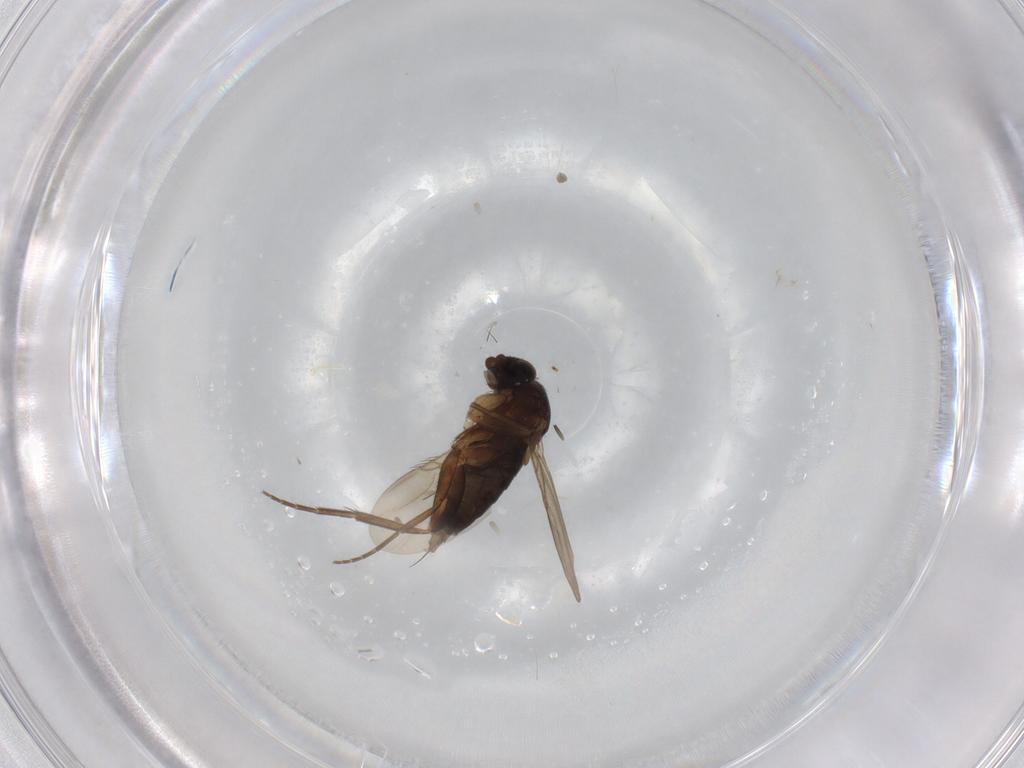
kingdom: Animalia
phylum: Arthropoda
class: Insecta
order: Diptera
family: Phoridae
